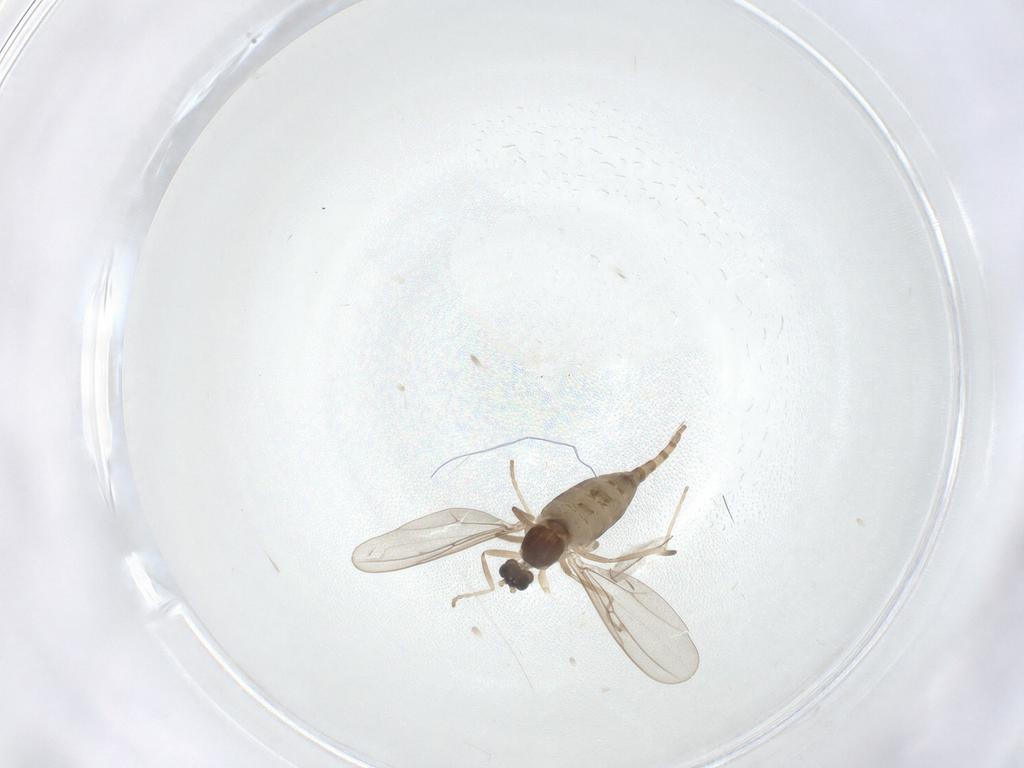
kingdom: Animalia
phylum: Arthropoda
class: Insecta
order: Diptera
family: Cecidomyiidae
